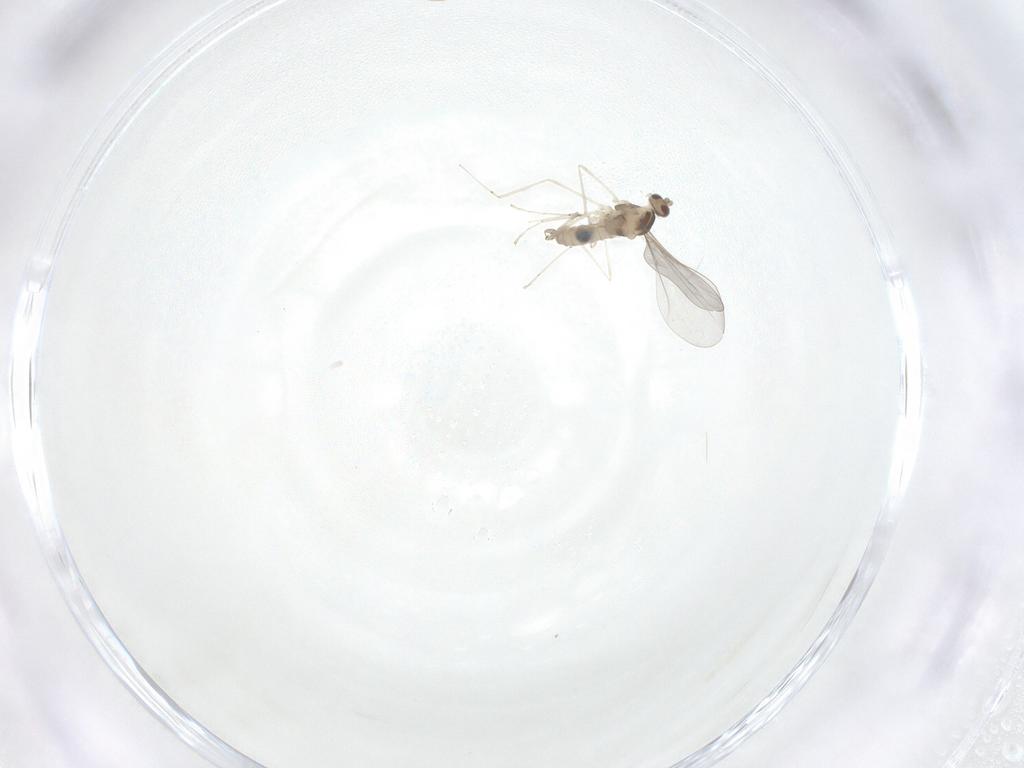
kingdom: Animalia
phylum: Arthropoda
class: Insecta
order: Diptera
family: Cecidomyiidae
